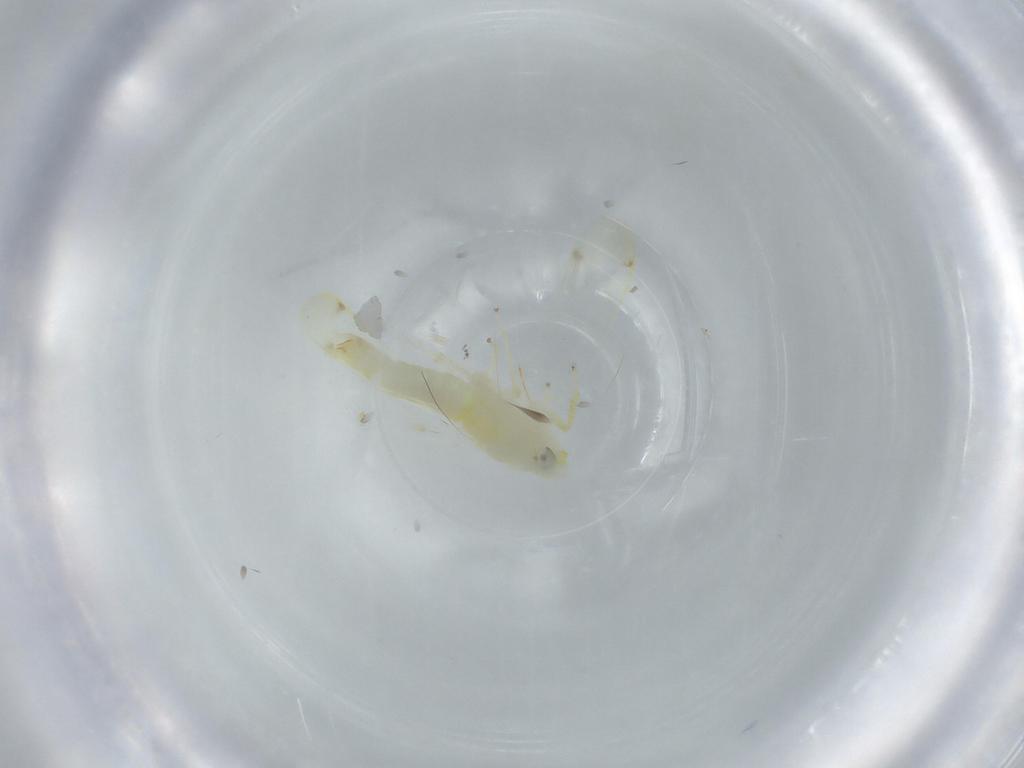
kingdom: Animalia
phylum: Arthropoda
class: Insecta
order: Hemiptera
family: Cicadellidae
